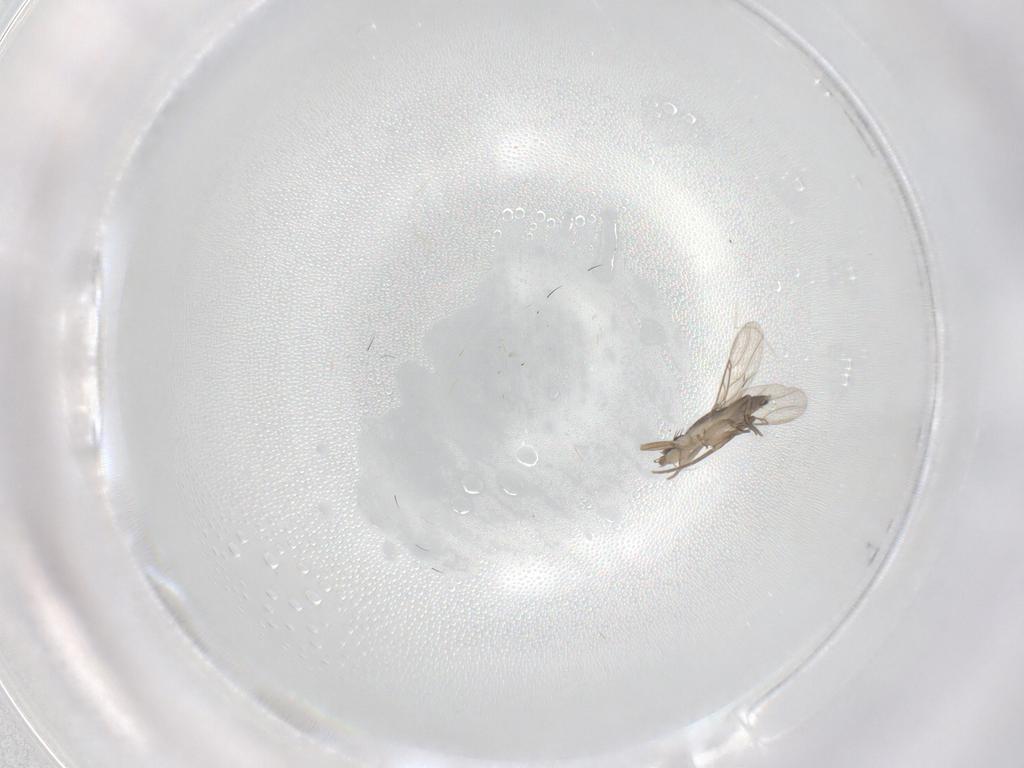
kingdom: Animalia
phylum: Arthropoda
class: Insecta
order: Diptera
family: Phoridae
